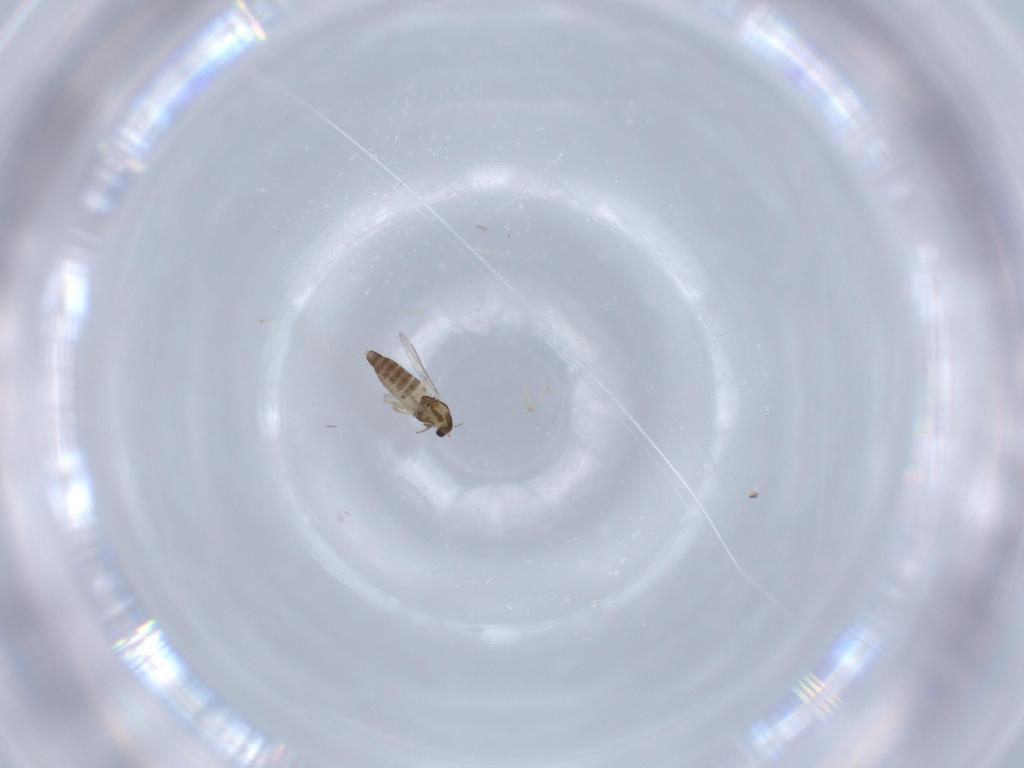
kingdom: Animalia
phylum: Arthropoda
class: Insecta
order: Diptera
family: Chironomidae
